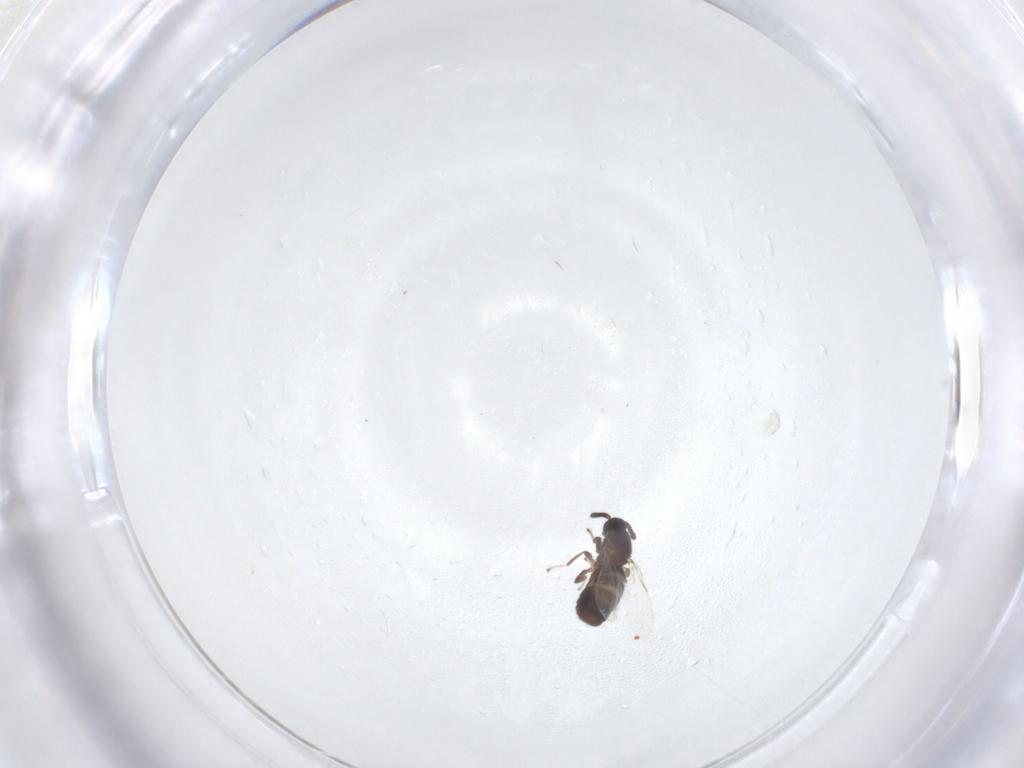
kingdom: Animalia
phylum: Arthropoda
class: Insecta
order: Diptera
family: Scatopsidae
